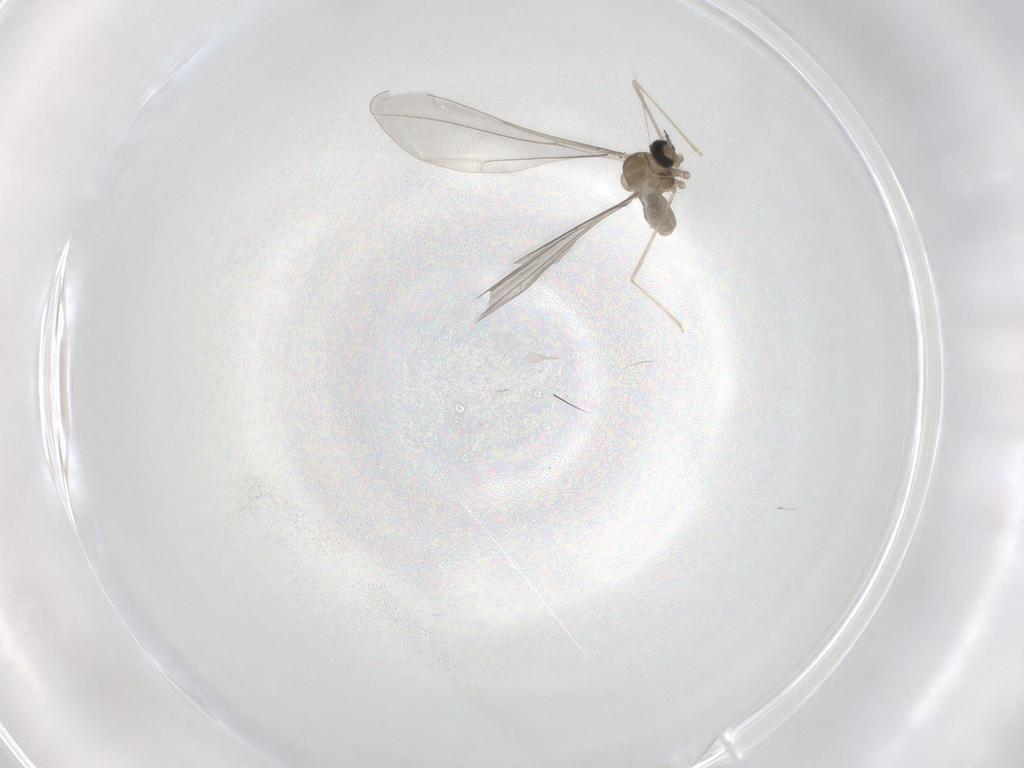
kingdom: Animalia
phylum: Arthropoda
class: Insecta
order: Diptera
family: Cecidomyiidae
